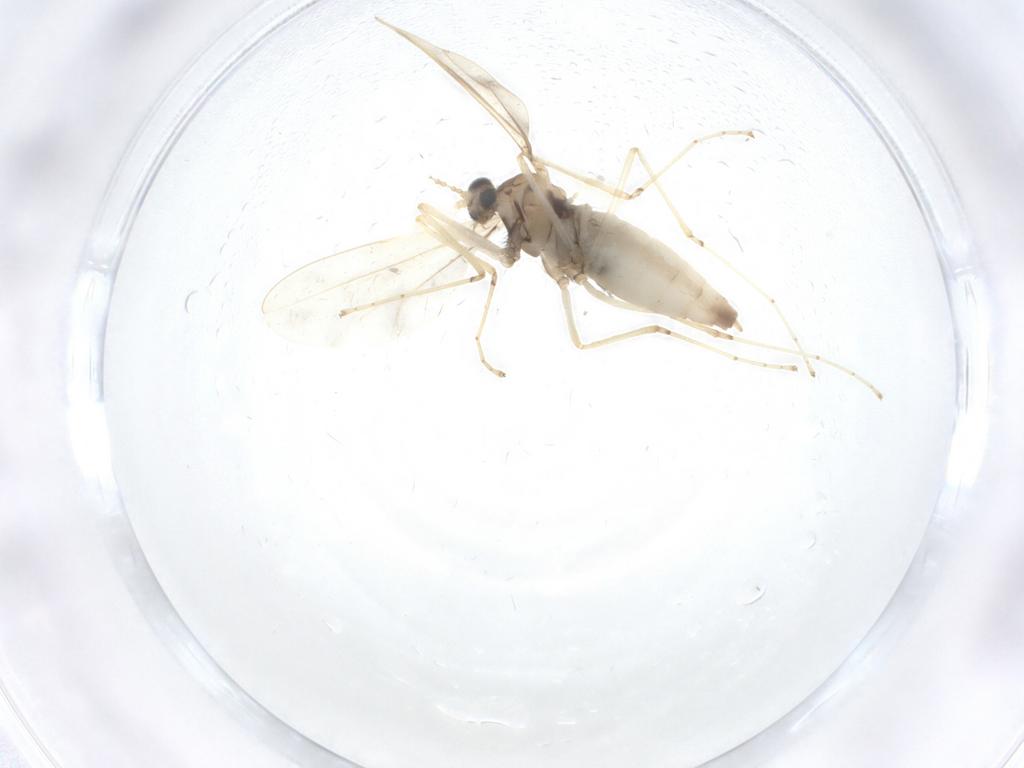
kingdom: Animalia
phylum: Arthropoda
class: Insecta
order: Diptera
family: Cecidomyiidae
